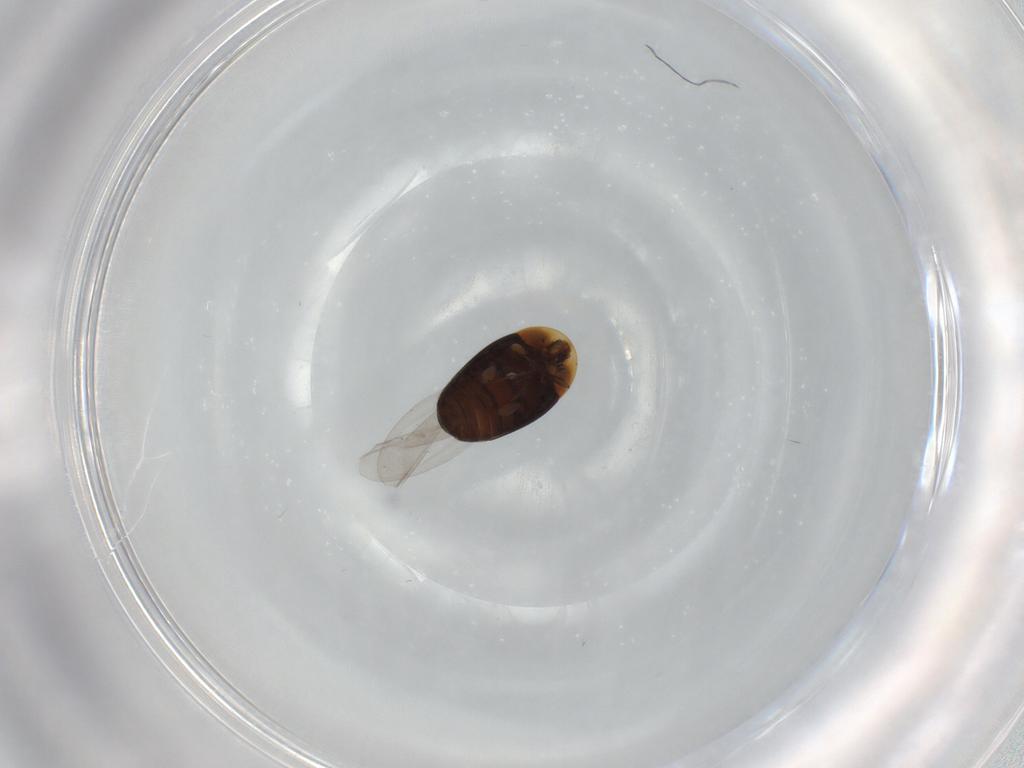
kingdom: Animalia
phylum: Arthropoda
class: Insecta
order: Coleoptera
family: Corylophidae
